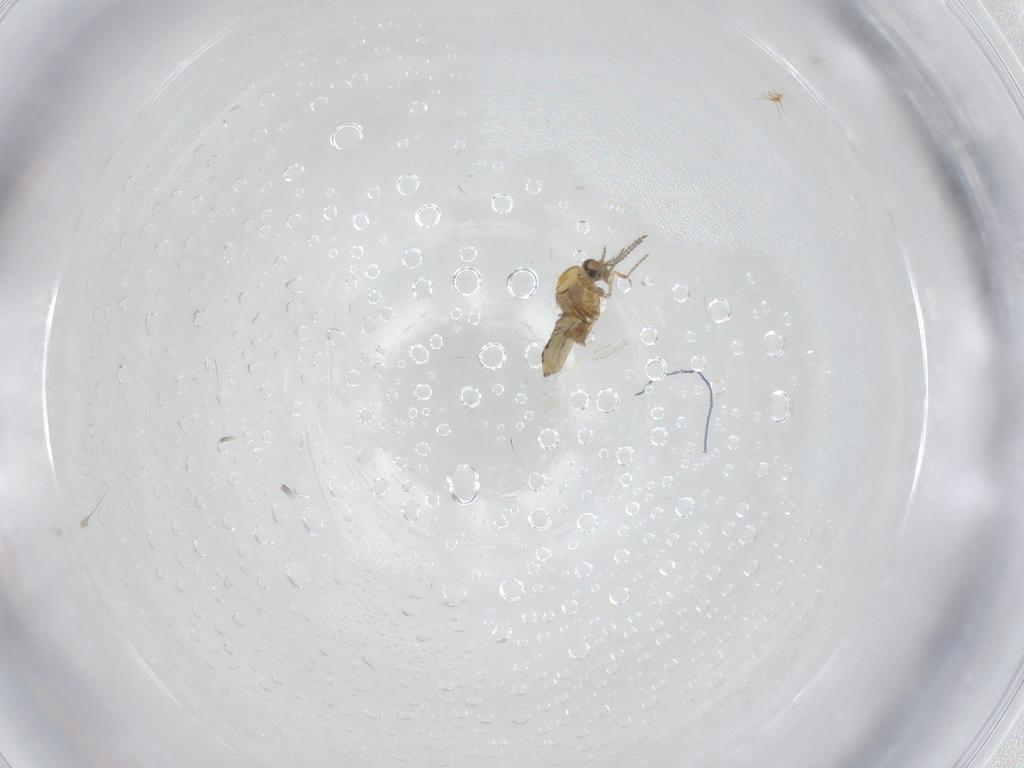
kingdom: Animalia
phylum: Arthropoda
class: Insecta
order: Diptera
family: Ceratopogonidae
